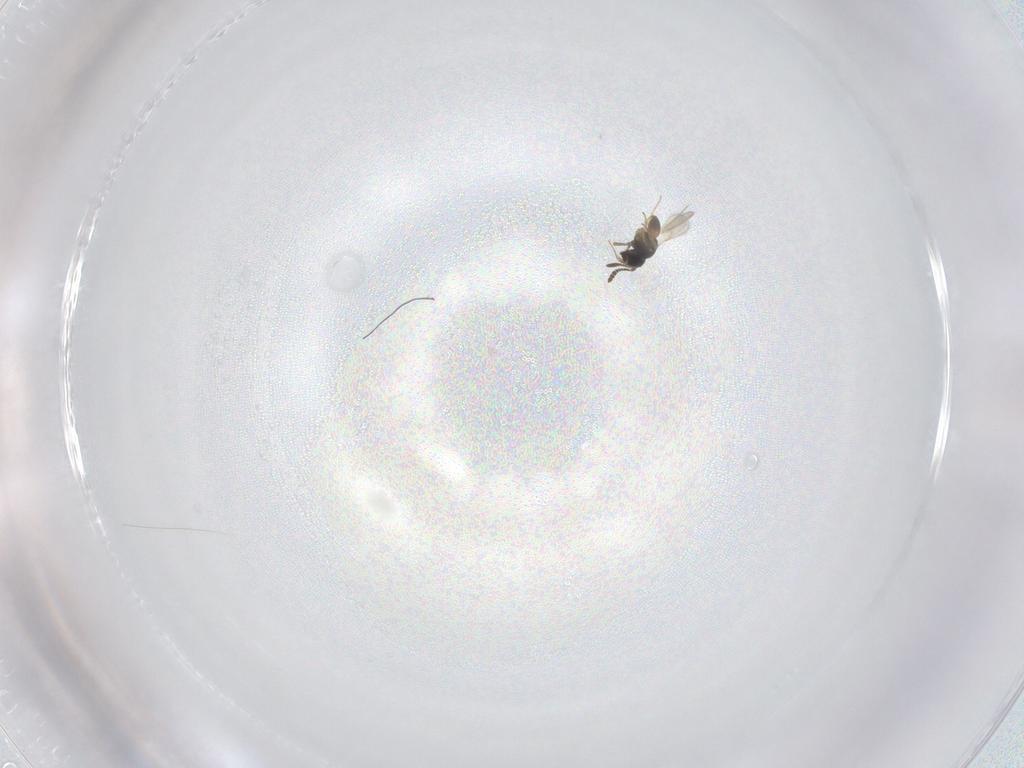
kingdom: Animalia
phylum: Arthropoda
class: Insecta
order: Hymenoptera
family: Scelionidae
